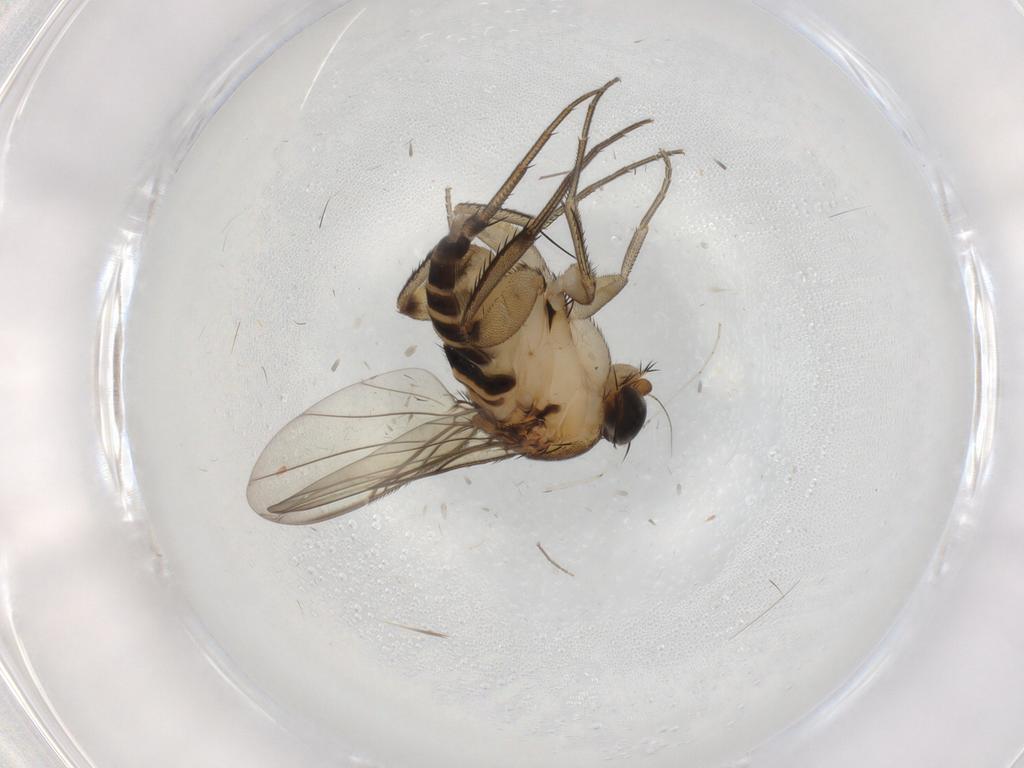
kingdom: Animalia
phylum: Arthropoda
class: Insecta
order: Diptera
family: Phoridae
